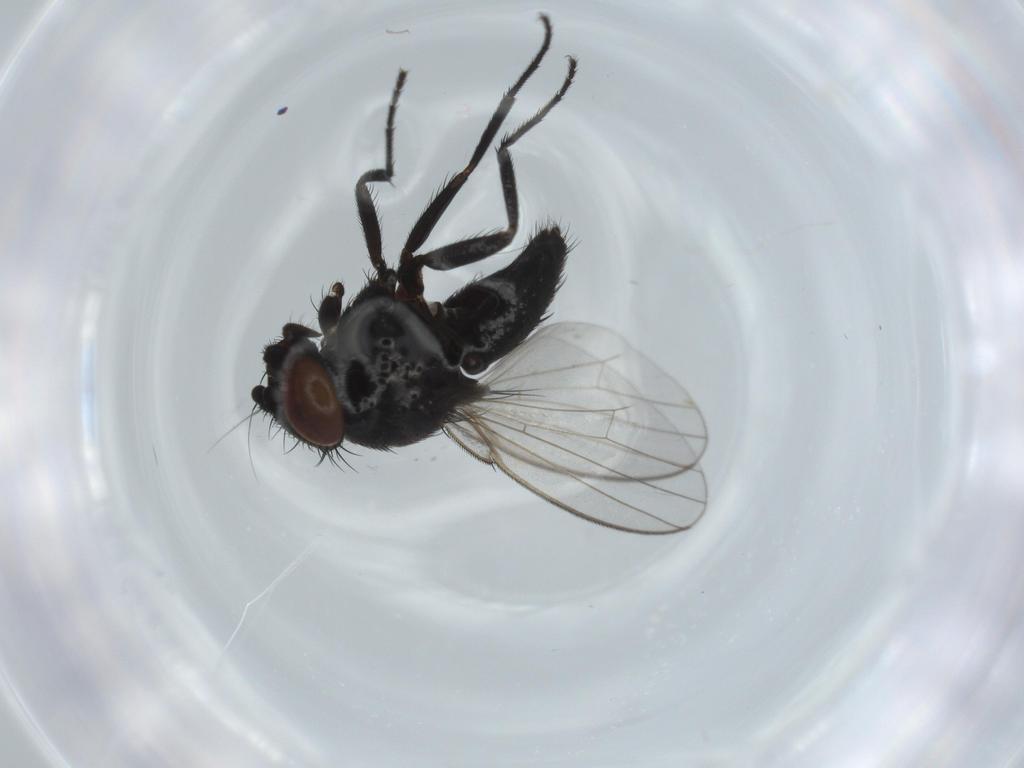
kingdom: Animalia
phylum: Arthropoda
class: Insecta
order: Diptera
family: Milichiidae
